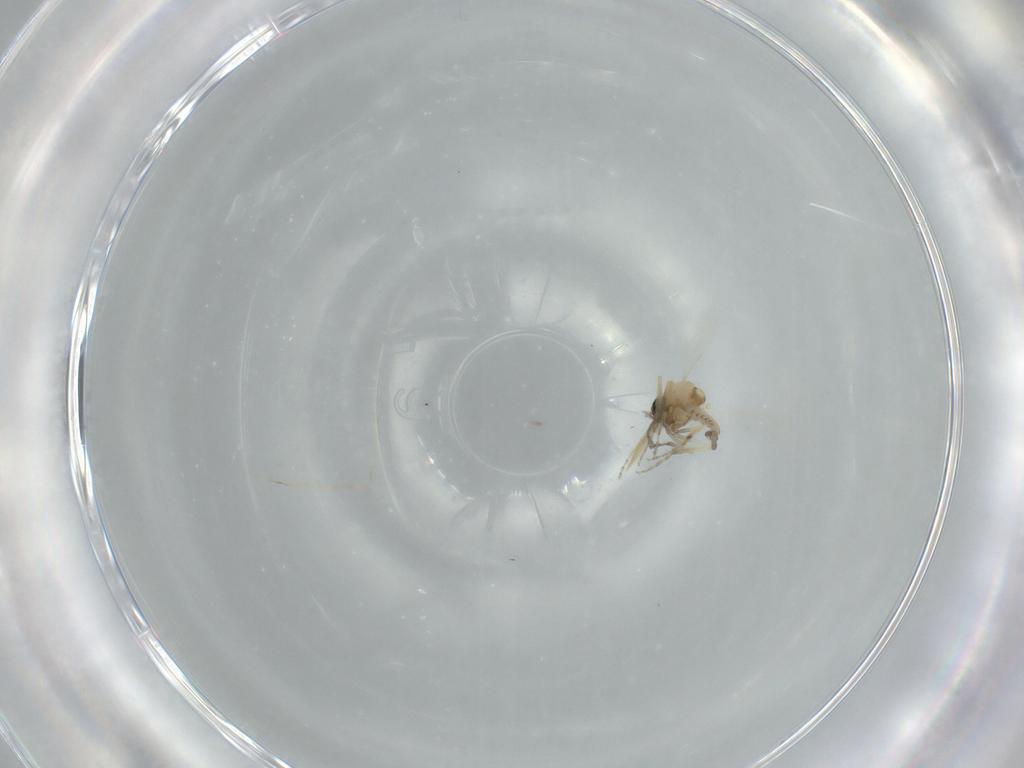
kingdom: Animalia
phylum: Arthropoda
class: Insecta
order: Diptera
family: Ceratopogonidae
